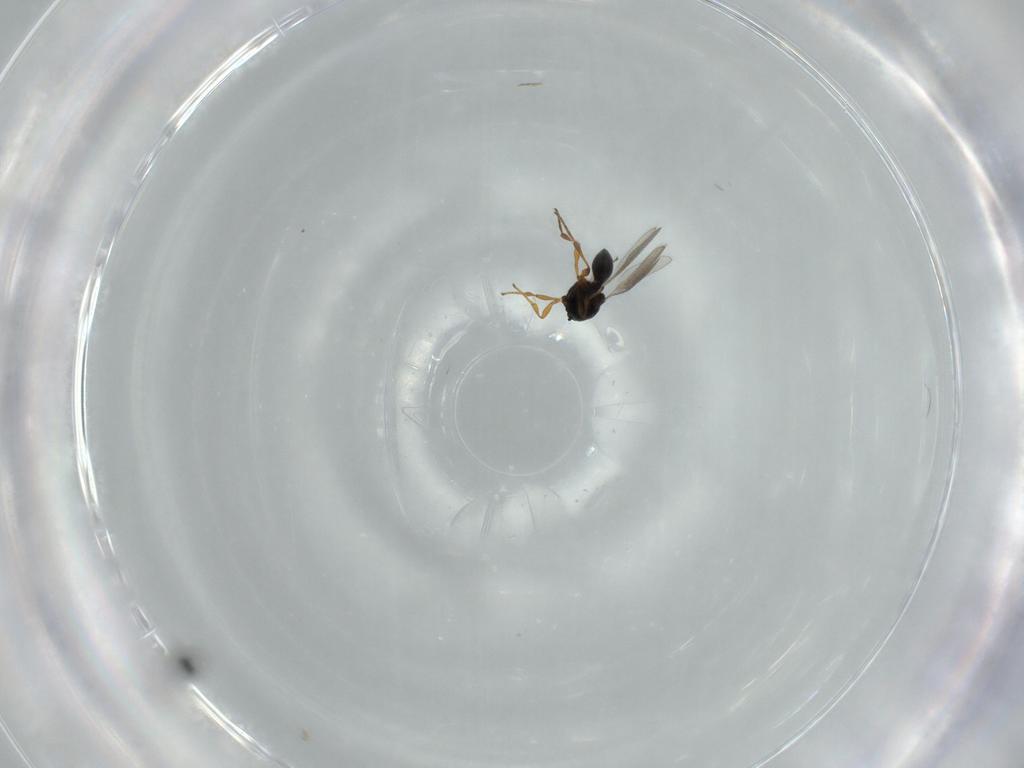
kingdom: Animalia
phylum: Arthropoda
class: Insecta
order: Hymenoptera
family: Platygastridae
